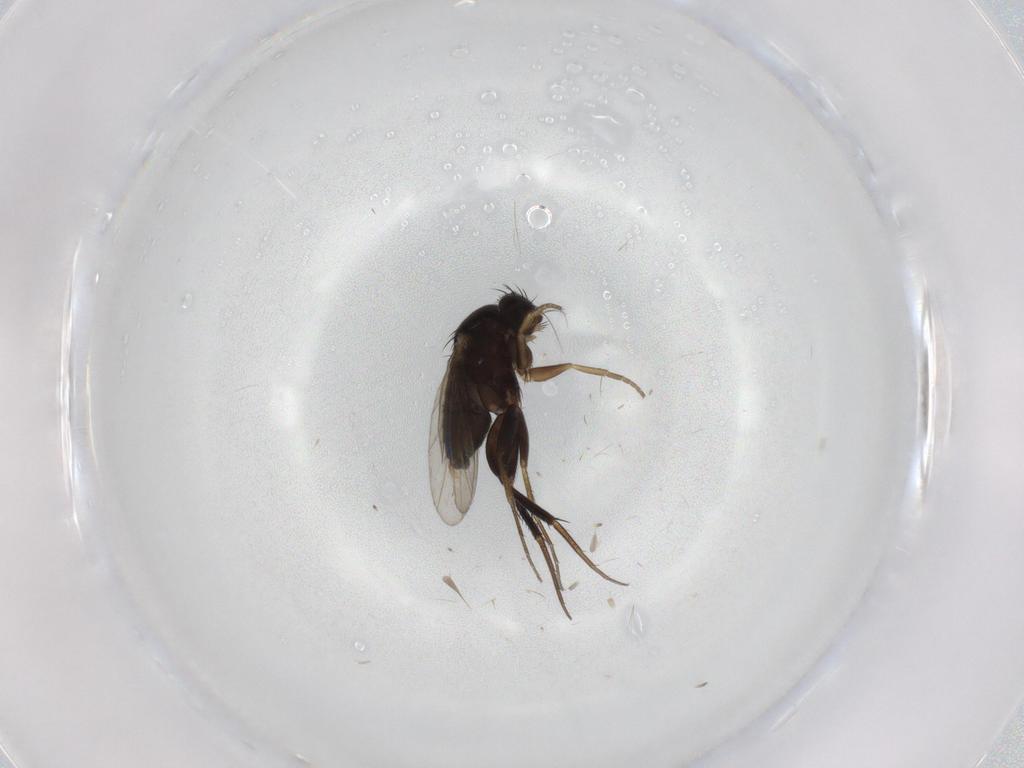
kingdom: Animalia
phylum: Arthropoda
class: Insecta
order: Diptera
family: Phoridae
